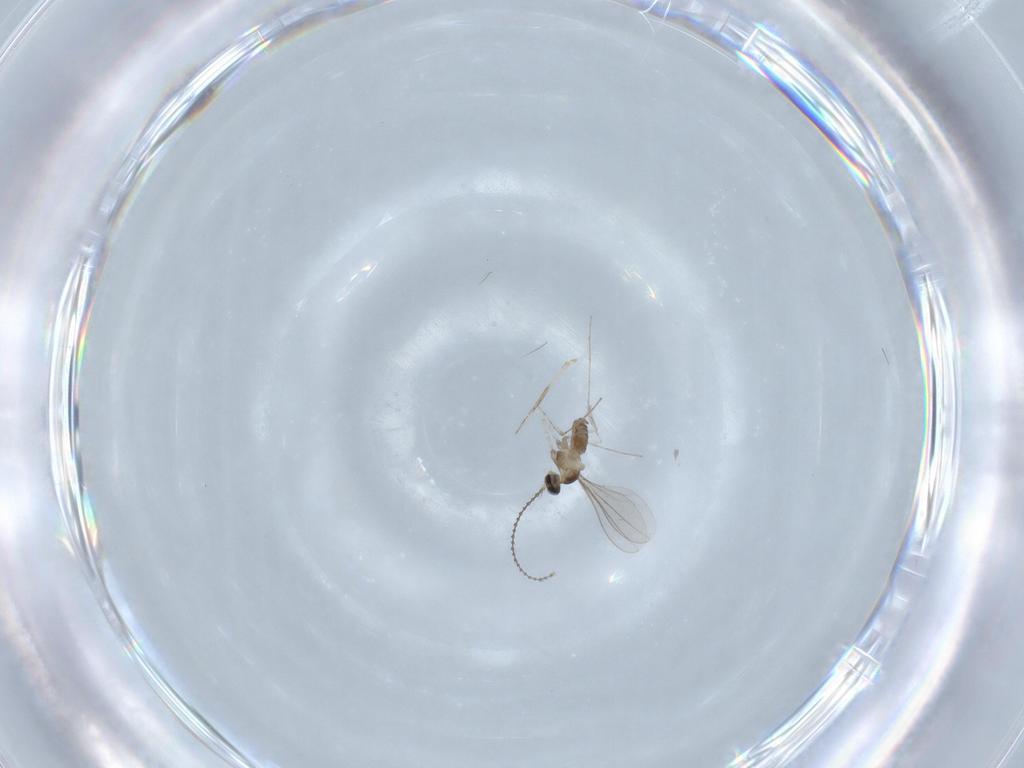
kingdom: Animalia
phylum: Arthropoda
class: Insecta
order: Diptera
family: Cecidomyiidae
